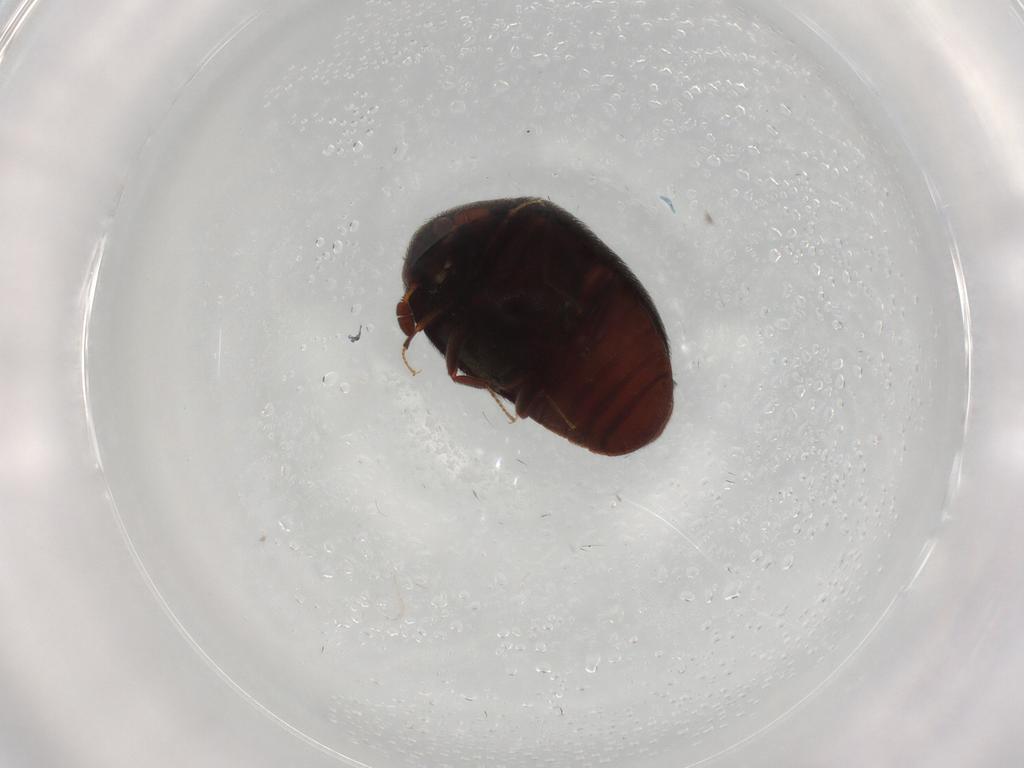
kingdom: Animalia
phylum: Arthropoda
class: Insecta
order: Coleoptera
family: Dermestidae
